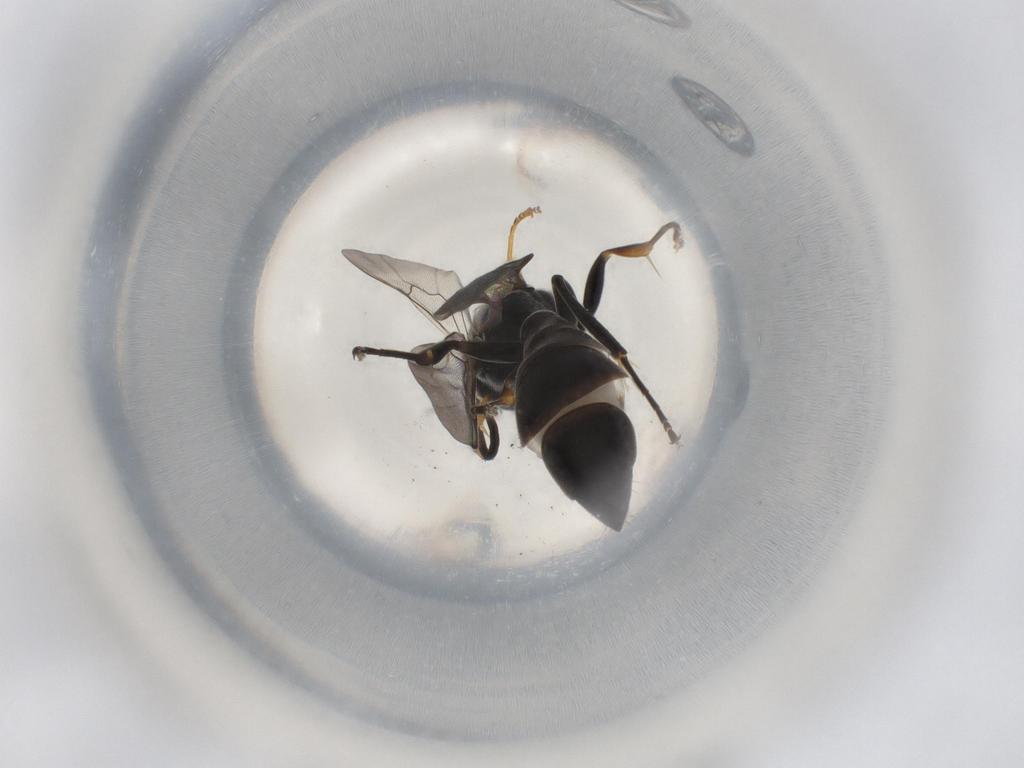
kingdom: Animalia
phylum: Arthropoda
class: Insecta
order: Hymenoptera
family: Pompilidae
